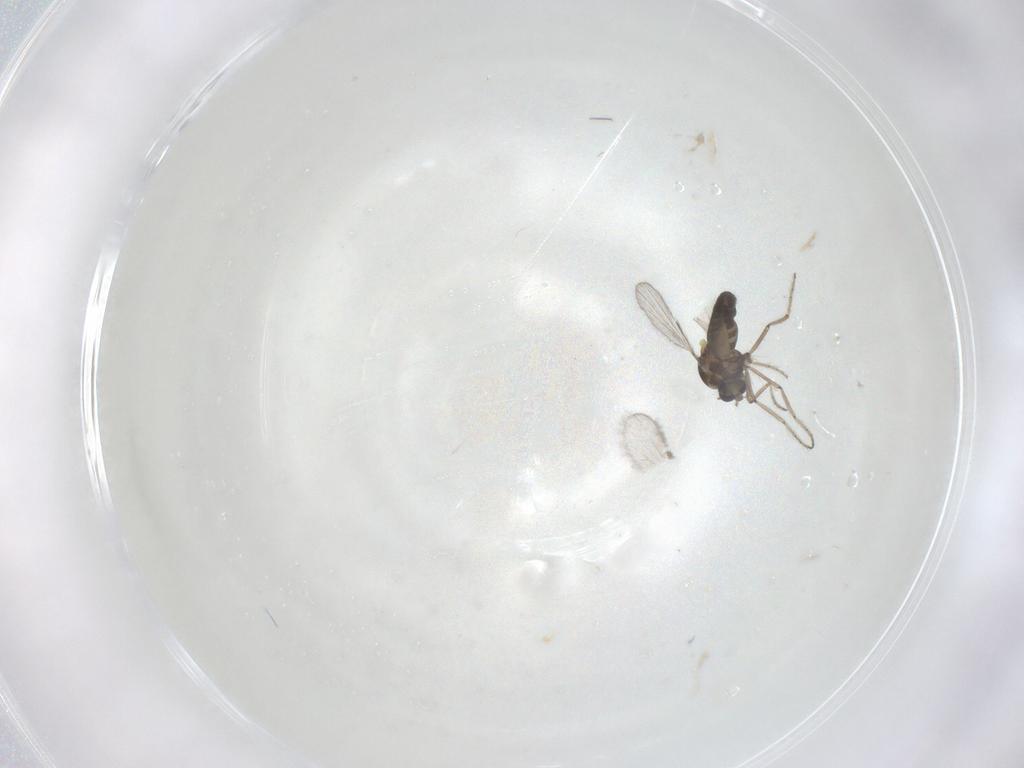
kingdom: Animalia
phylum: Arthropoda
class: Insecta
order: Diptera
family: Ceratopogonidae
